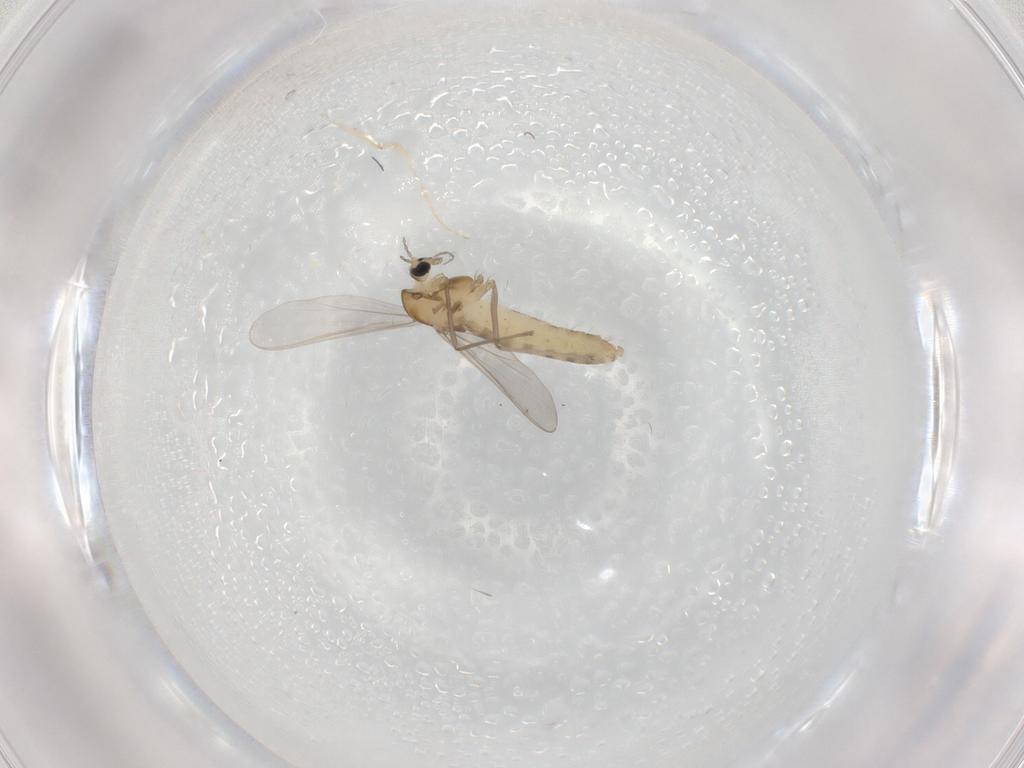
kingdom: Animalia
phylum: Arthropoda
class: Insecta
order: Diptera
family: Chironomidae
